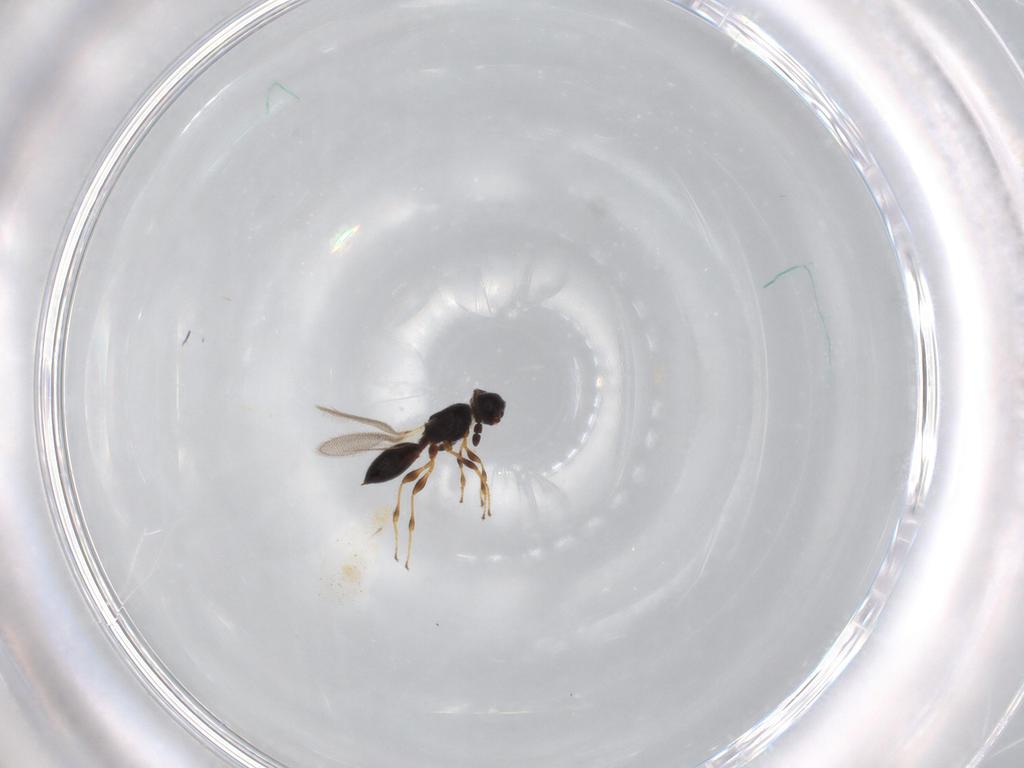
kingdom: Animalia
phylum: Arthropoda
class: Insecta
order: Hymenoptera
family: Diapriidae
